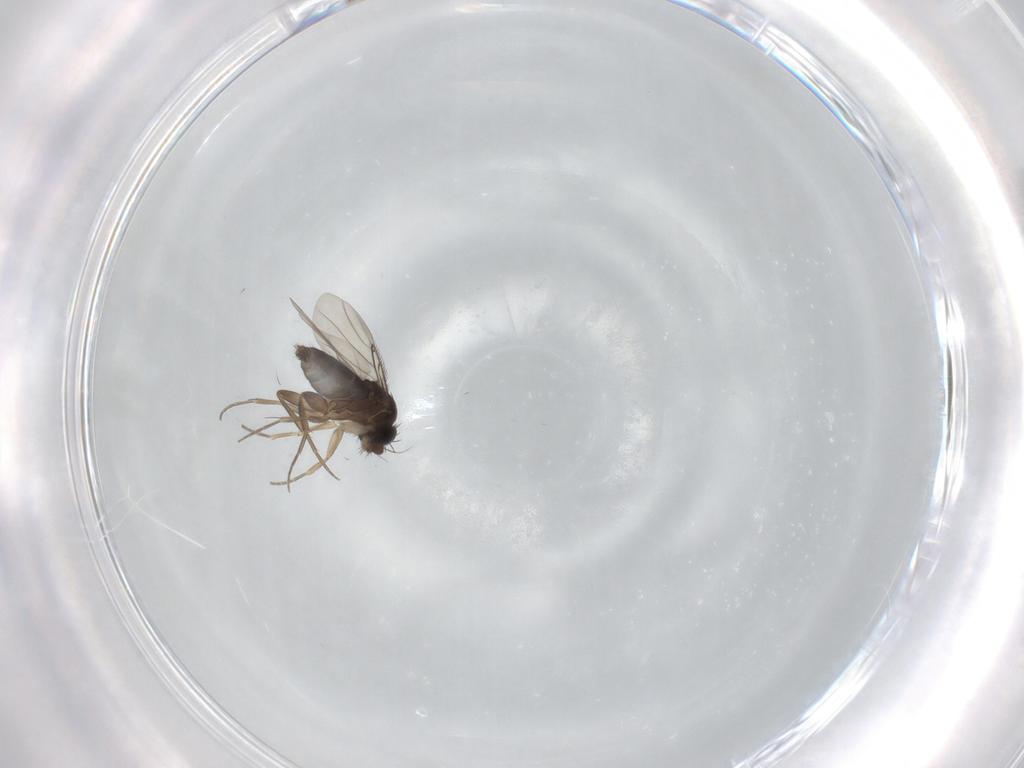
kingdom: Animalia
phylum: Arthropoda
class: Insecta
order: Diptera
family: Phoridae
